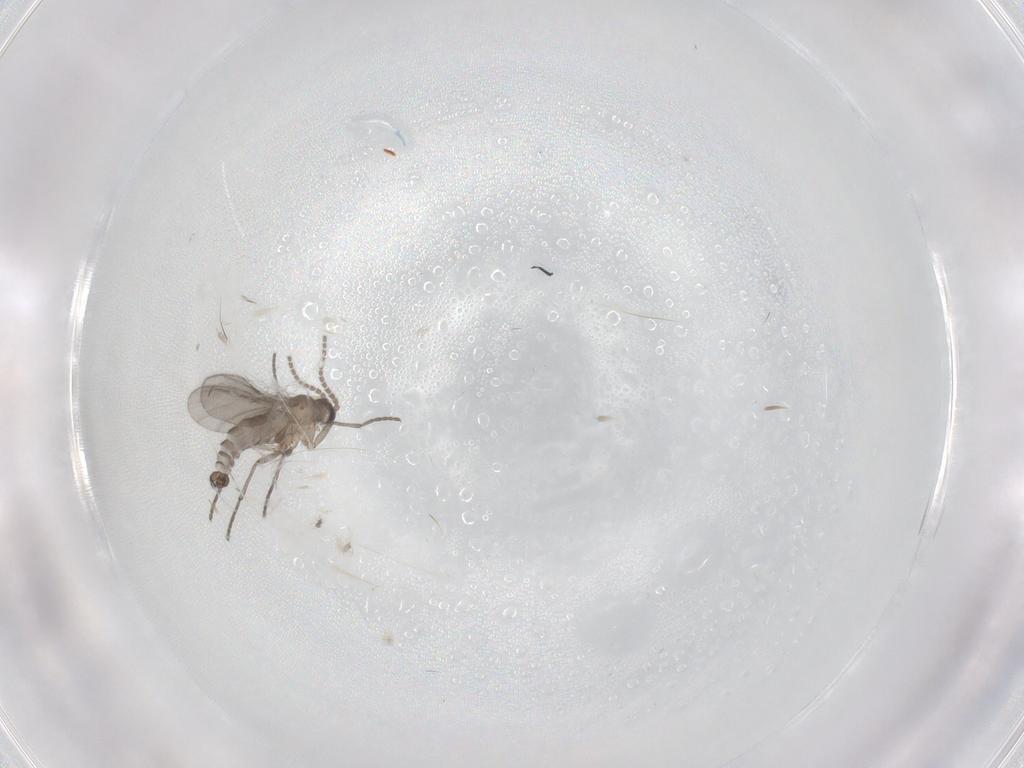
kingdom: Animalia
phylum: Arthropoda
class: Insecta
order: Diptera
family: Sciaridae
